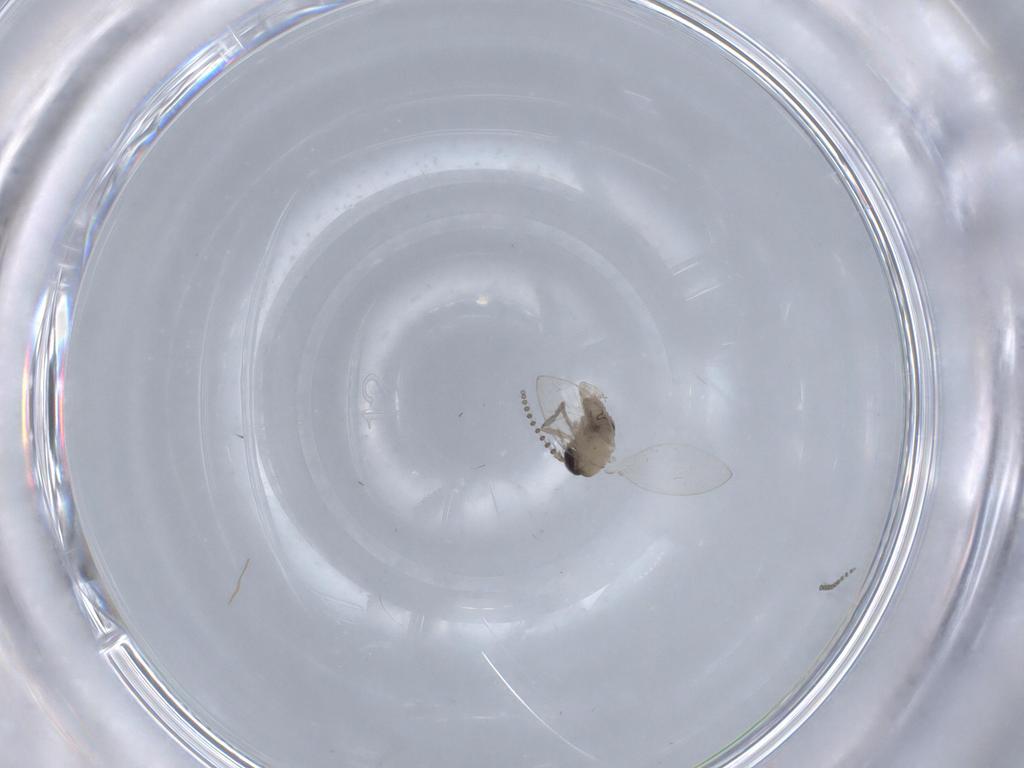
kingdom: Animalia
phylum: Arthropoda
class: Insecta
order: Diptera
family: Psychodidae
